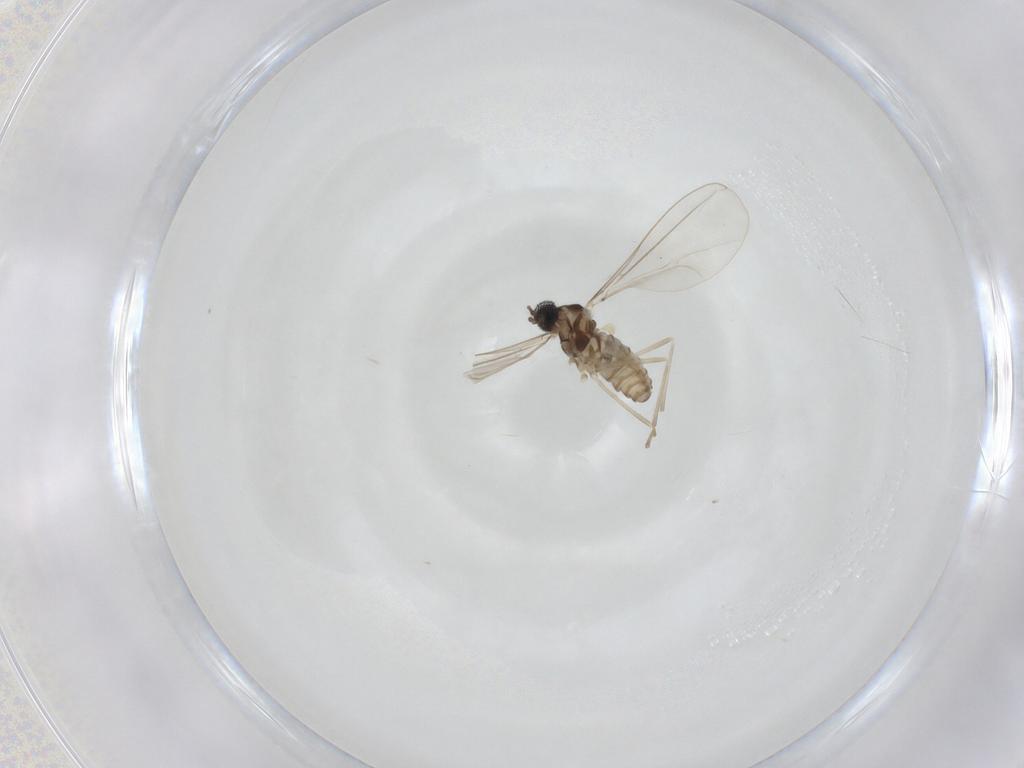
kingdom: Animalia
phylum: Arthropoda
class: Insecta
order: Diptera
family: Cecidomyiidae
